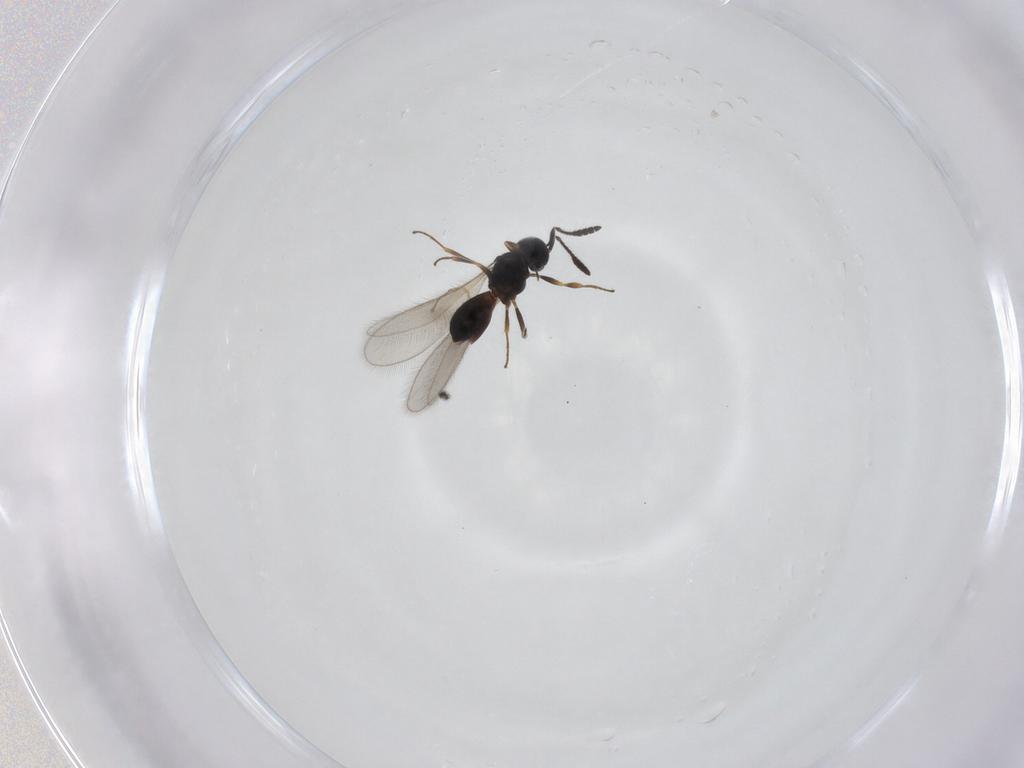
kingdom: Animalia
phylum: Arthropoda
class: Insecta
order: Hymenoptera
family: Scelionidae
